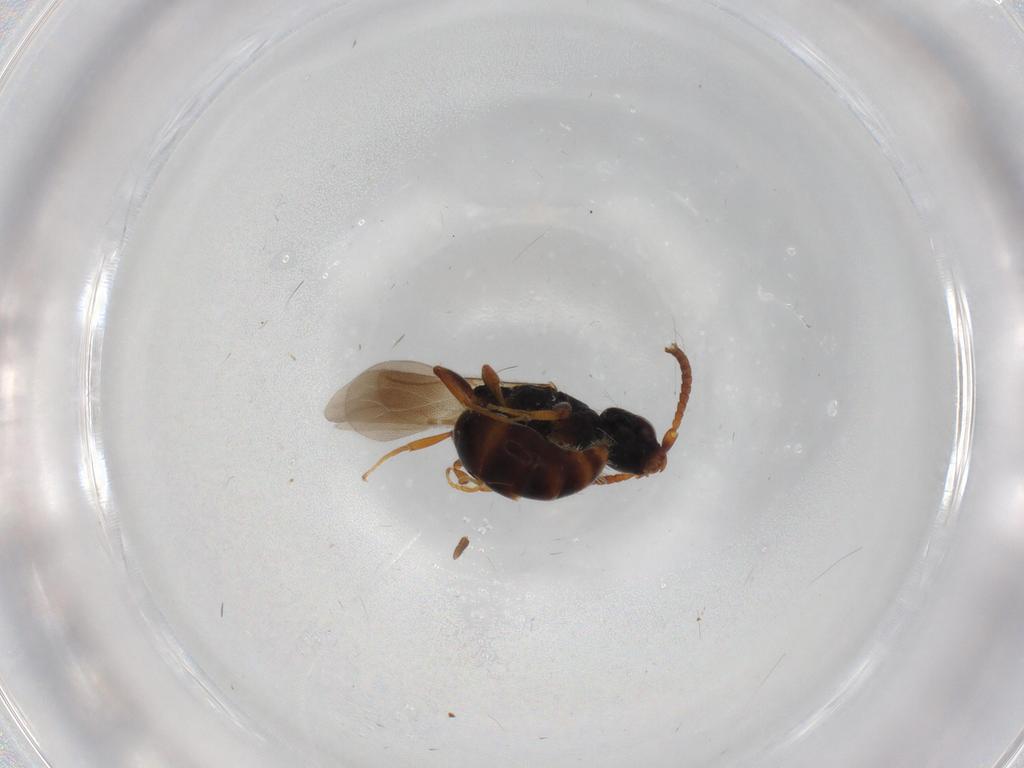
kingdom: Animalia
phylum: Arthropoda
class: Insecta
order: Hymenoptera
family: Bethylidae
